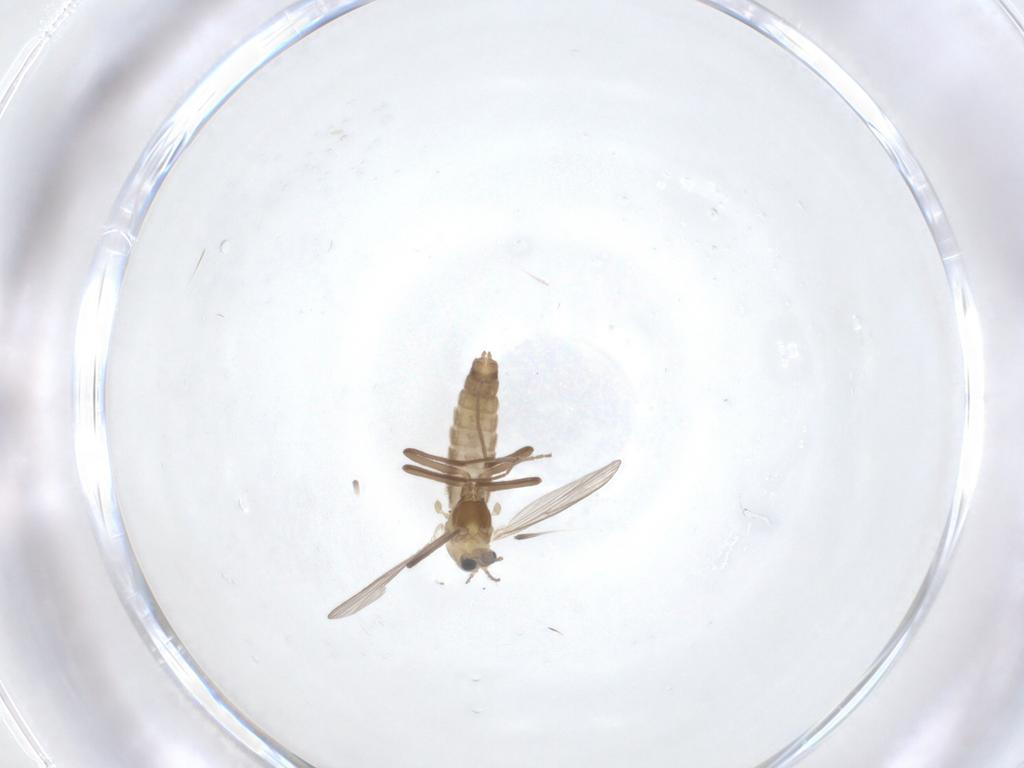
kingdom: Animalia
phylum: Arthropoda
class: Insecta
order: Diptera
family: Chironomidae
